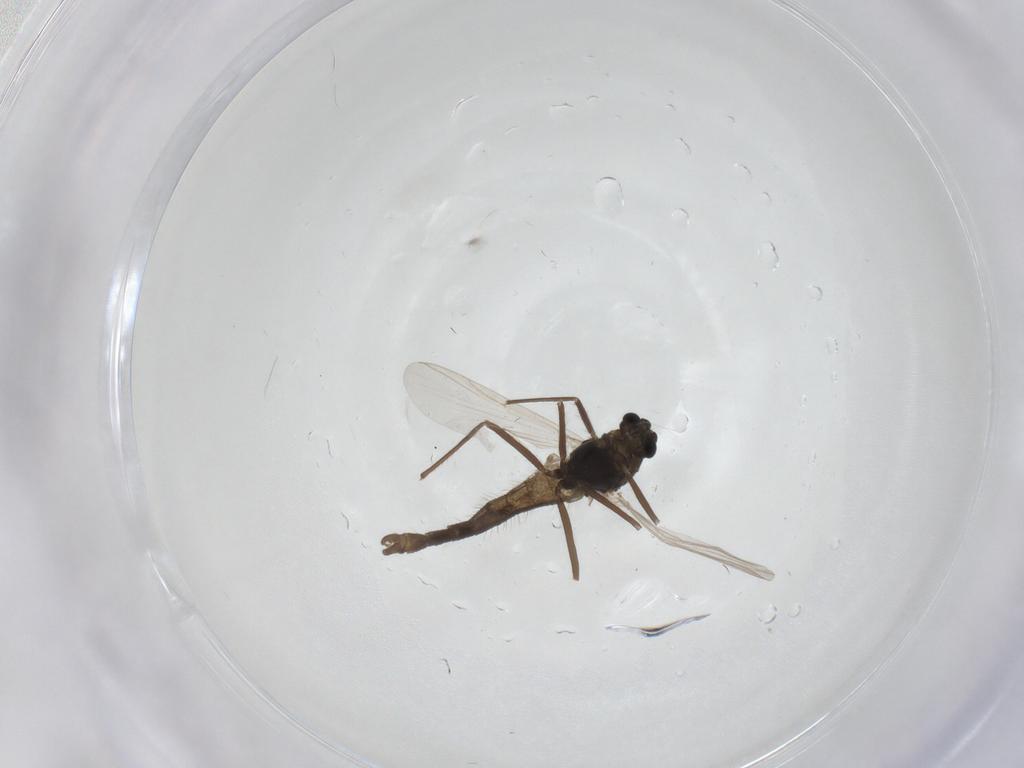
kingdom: Animalia
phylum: Arthropoda
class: Insecta
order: Diptera
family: Chironomidae
